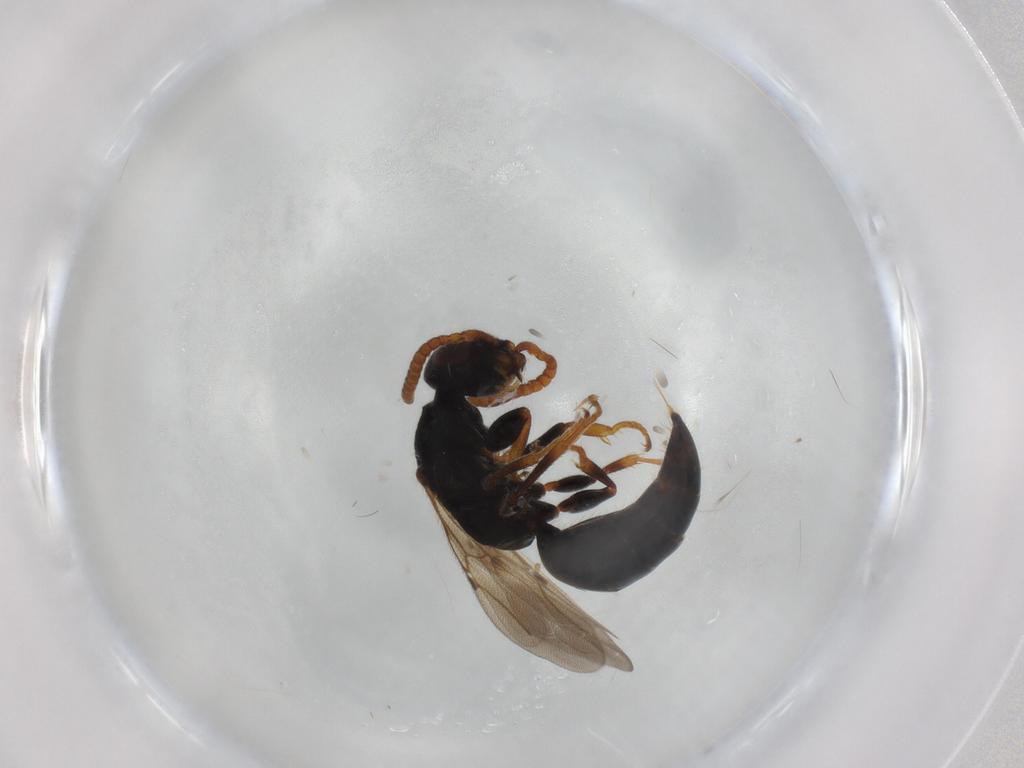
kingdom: Animalia
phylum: Arthropoda
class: Insecta
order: Hymenoptera
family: Bethylidae
